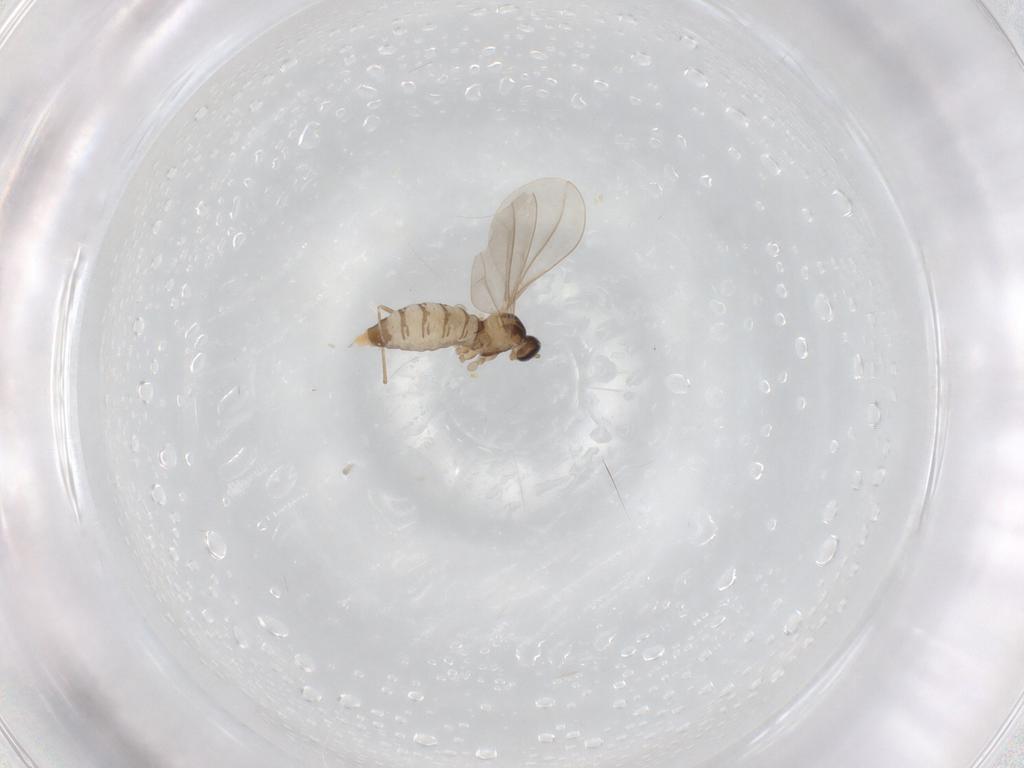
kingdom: Animalia
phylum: Arthropoda
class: Insecta
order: Diptera
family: Cecidomyiidae
